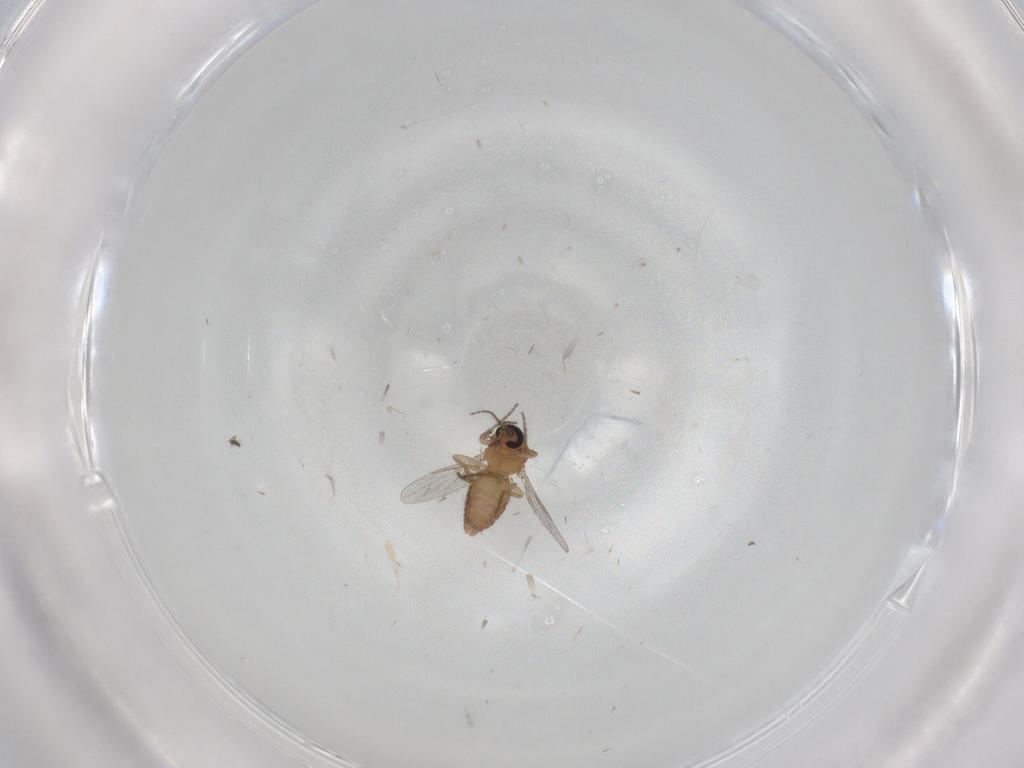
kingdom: Animalia
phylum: Arthropoda
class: Insecta
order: Diptera
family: Ceratopogonidae
